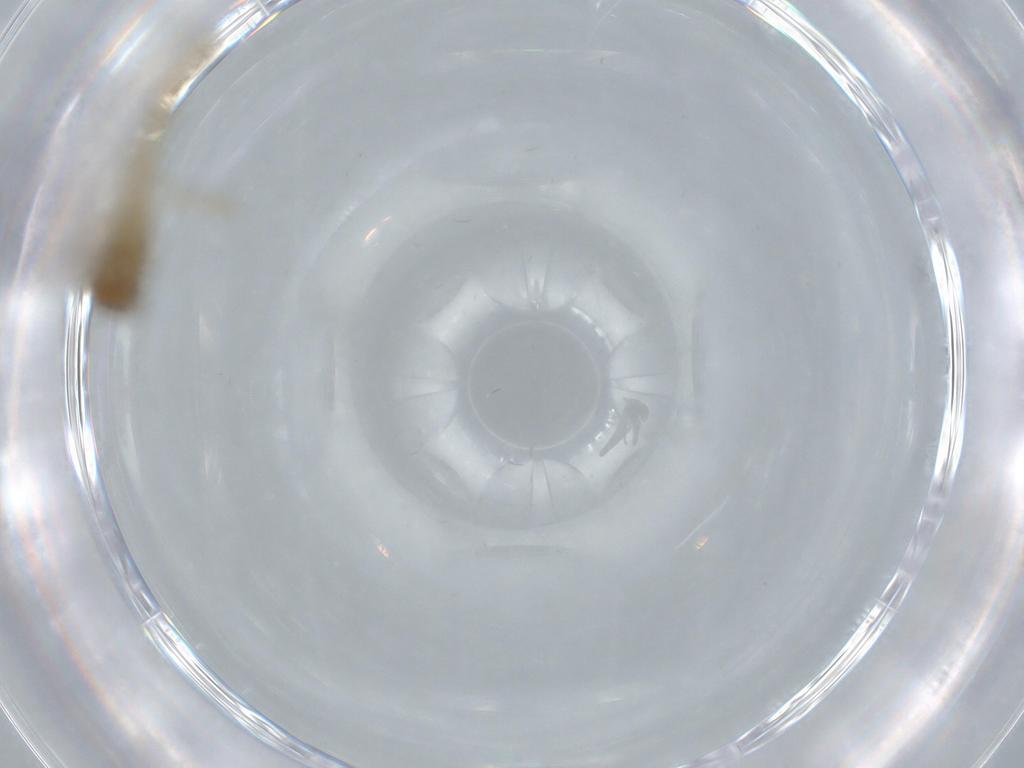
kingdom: Animalia
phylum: Arthropoda
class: Insecta
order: Diptera
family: Chironomidae
